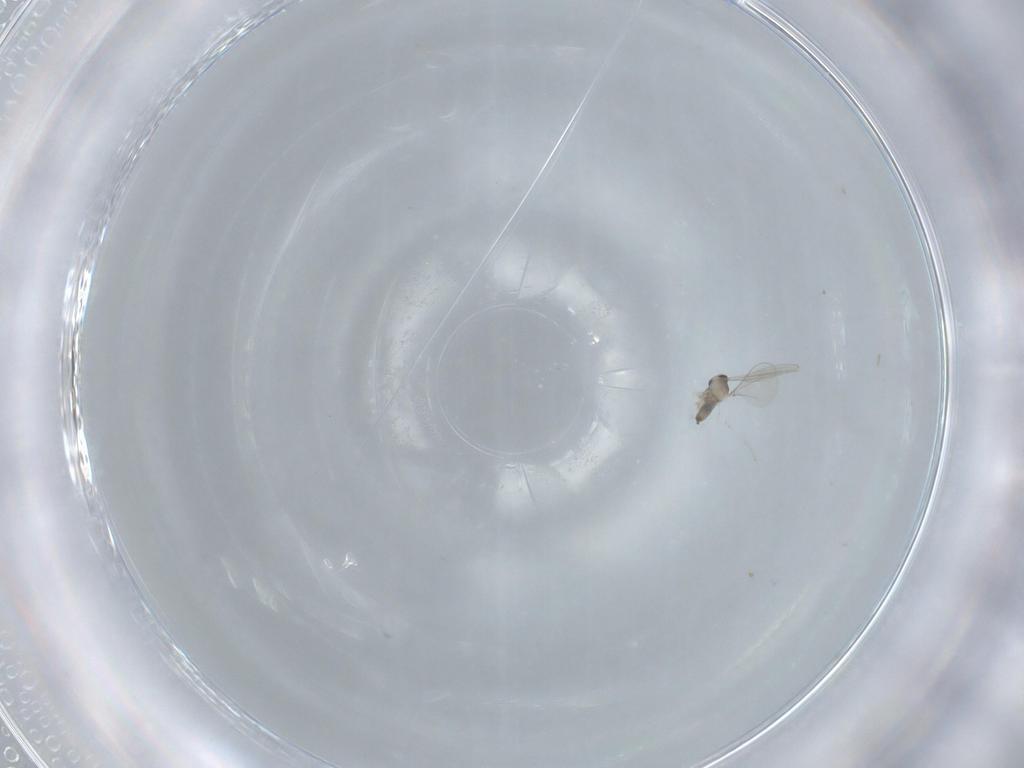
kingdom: Animalia
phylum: Arthropoda
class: Insecta
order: Diptera
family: Cecidomyiidae
